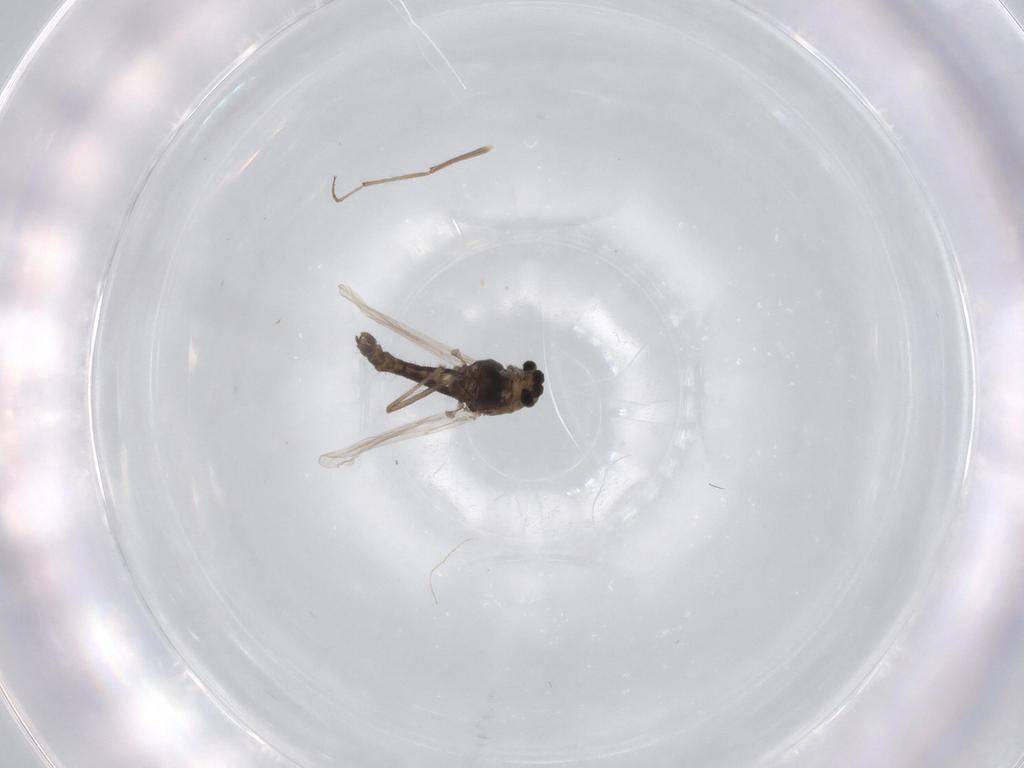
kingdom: Animalia
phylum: Arthropoda
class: Insecta
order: Diptera
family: Chironomidae
